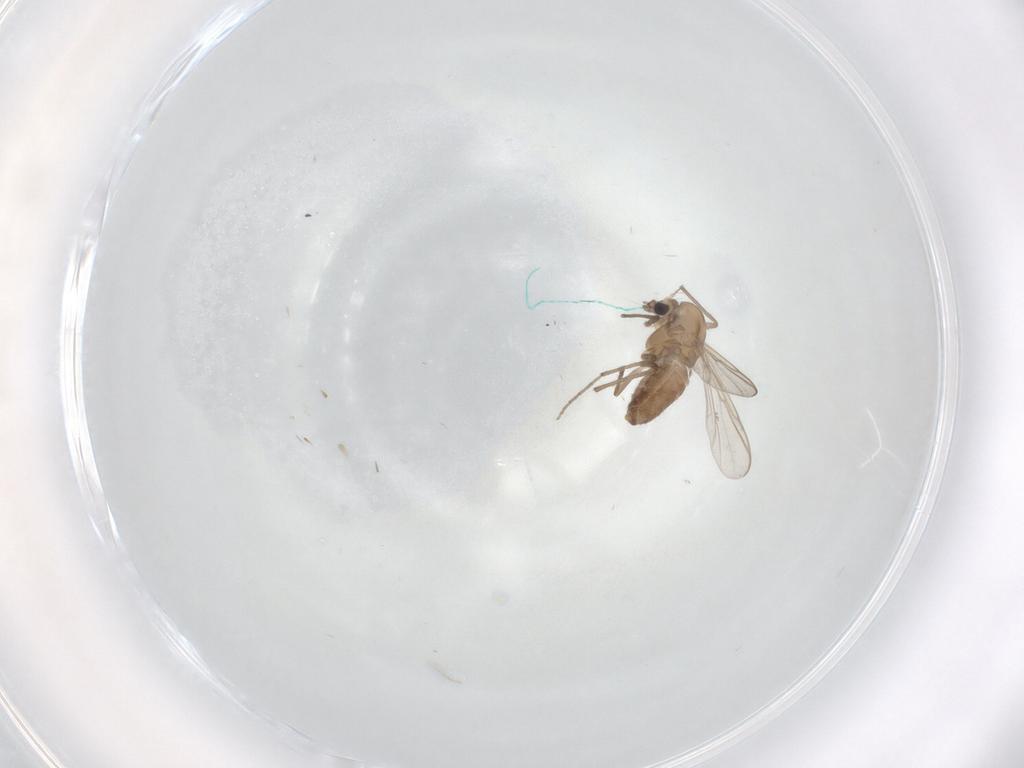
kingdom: Animalia
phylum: Arthropoda
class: Insecta
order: Diptera
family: Chironomidae
